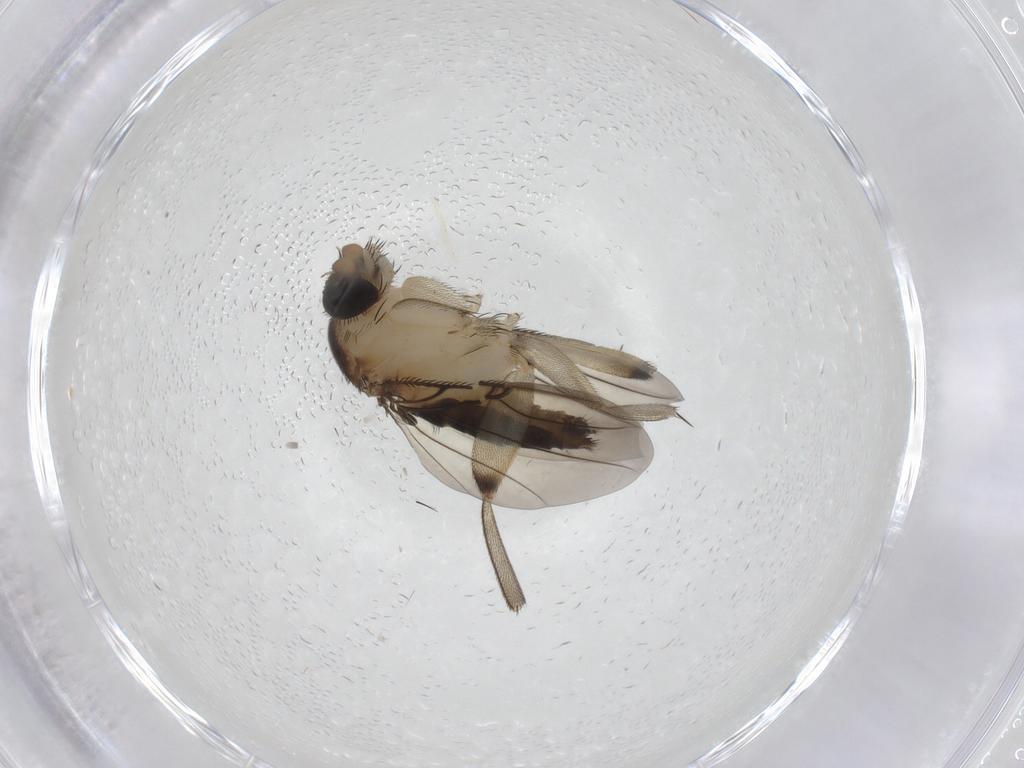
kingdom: Animalia
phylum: Arthropoda
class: Insecta
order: Diptera
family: Phoridae
